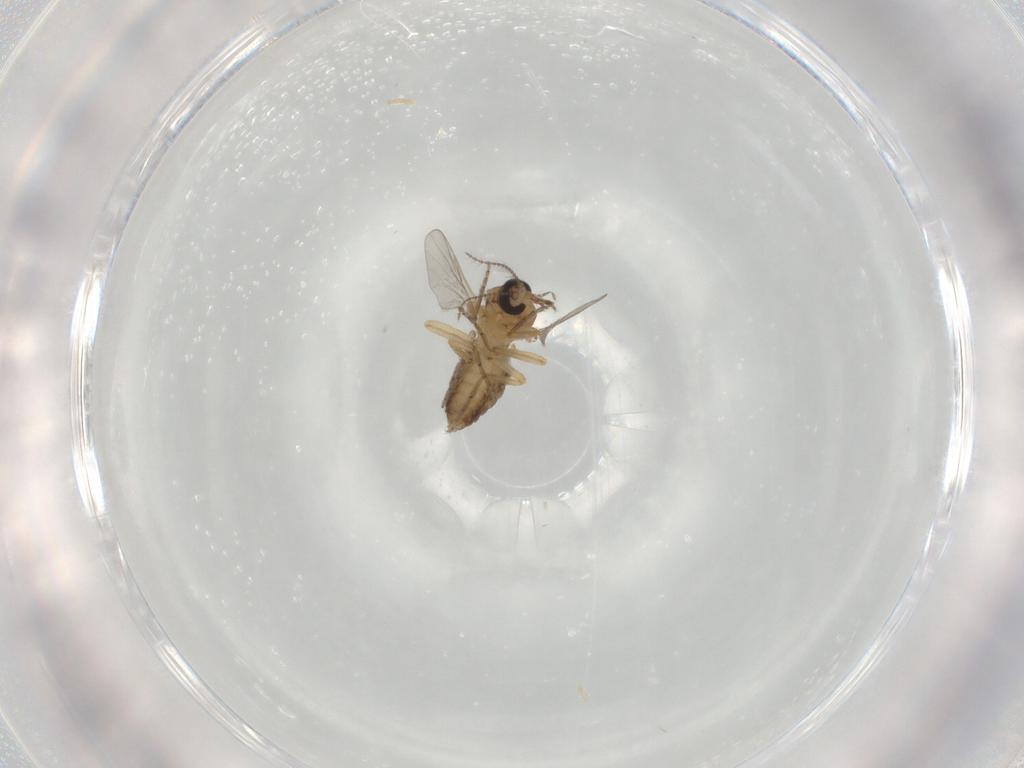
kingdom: Animalia
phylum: Arthropoda
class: Insecta
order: Diptera
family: Ceratopogonidae
